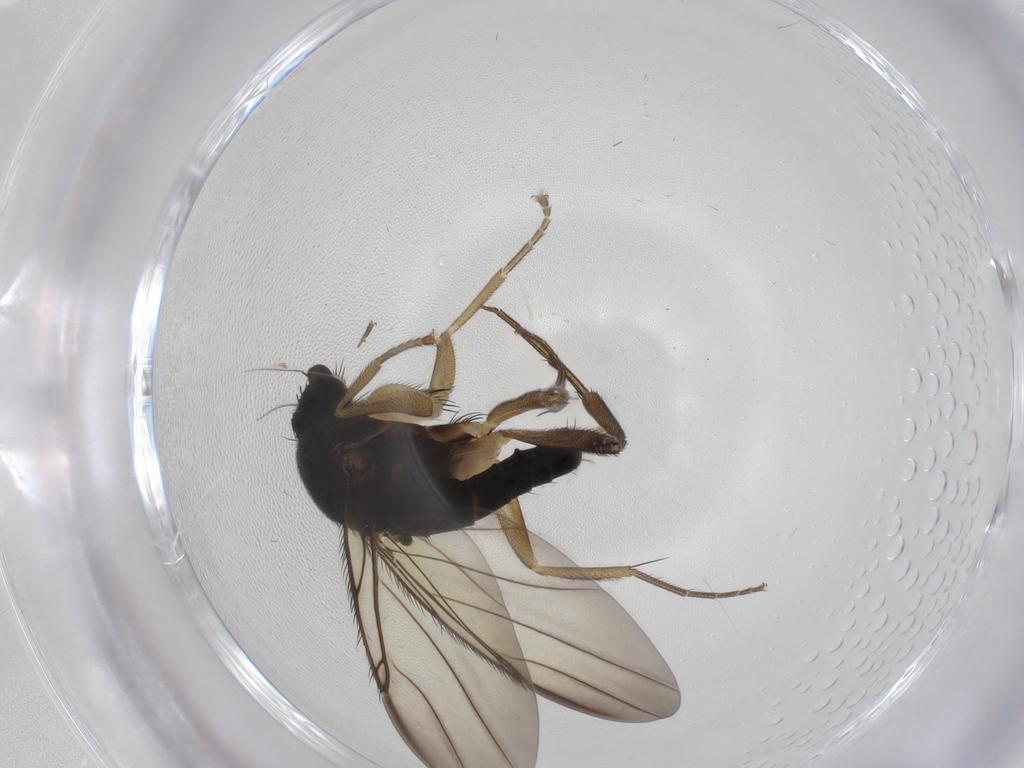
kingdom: Animalia
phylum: Arthropoda
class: Insecta
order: Diptera
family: Phoridae
